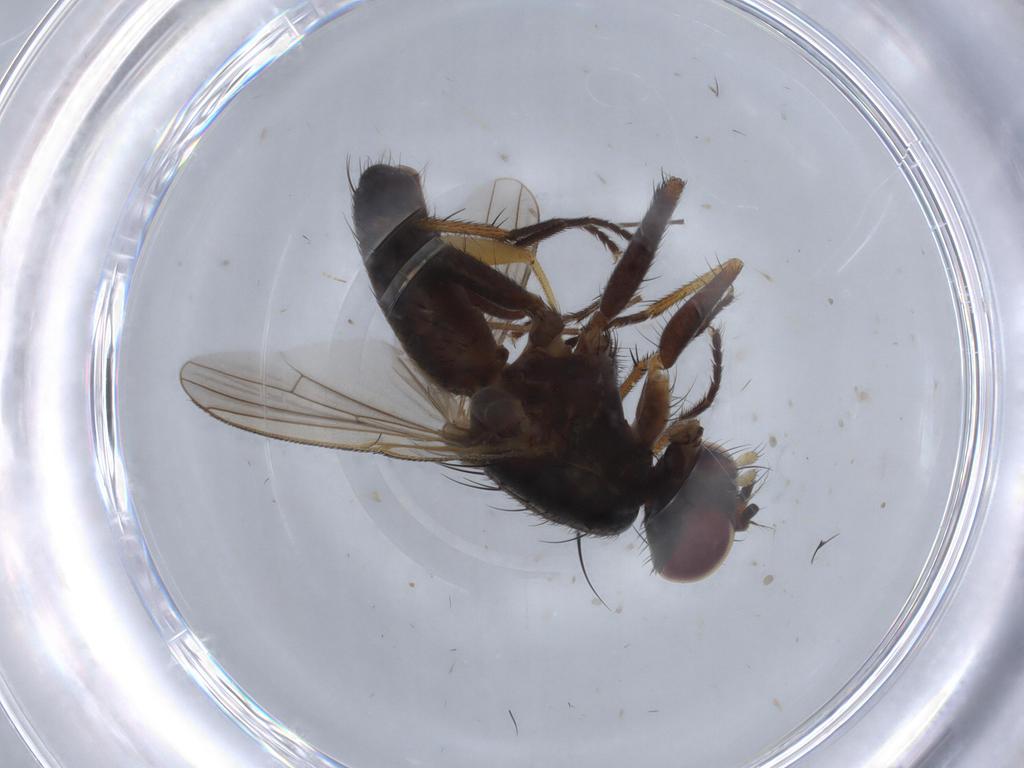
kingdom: Animalia
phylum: Arthropoda
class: Insecta
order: Diptera
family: Muscidae
